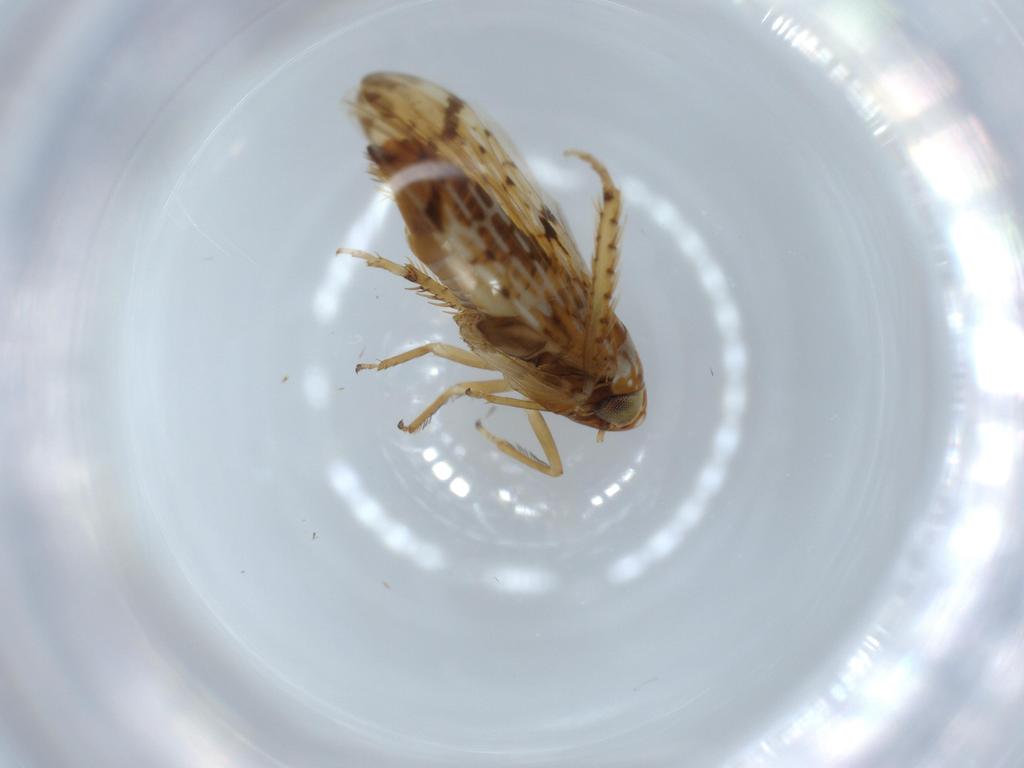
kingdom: Animalia
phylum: Arthropoda
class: Insecta
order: Hemiptera
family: Cicadellidae
